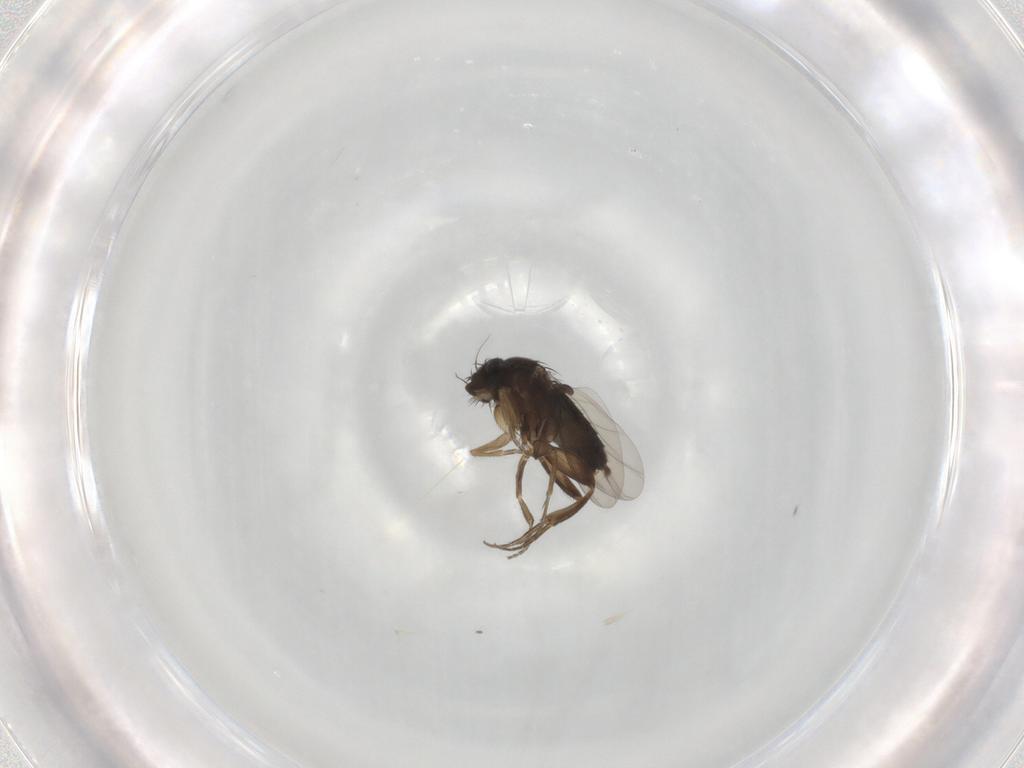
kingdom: Animalia
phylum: Arthropoda
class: Insecta
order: Diptera
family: Phoridae
